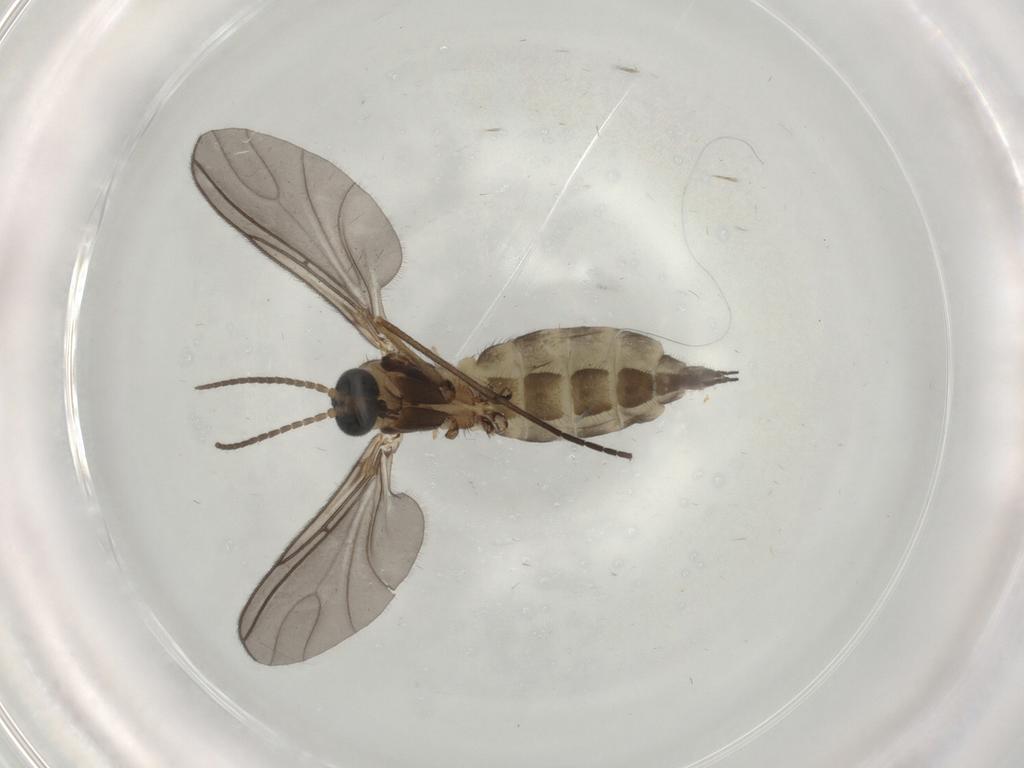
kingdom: Animalia
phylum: Arthropoda
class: Insecta
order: Diptera
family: Sciaridae
